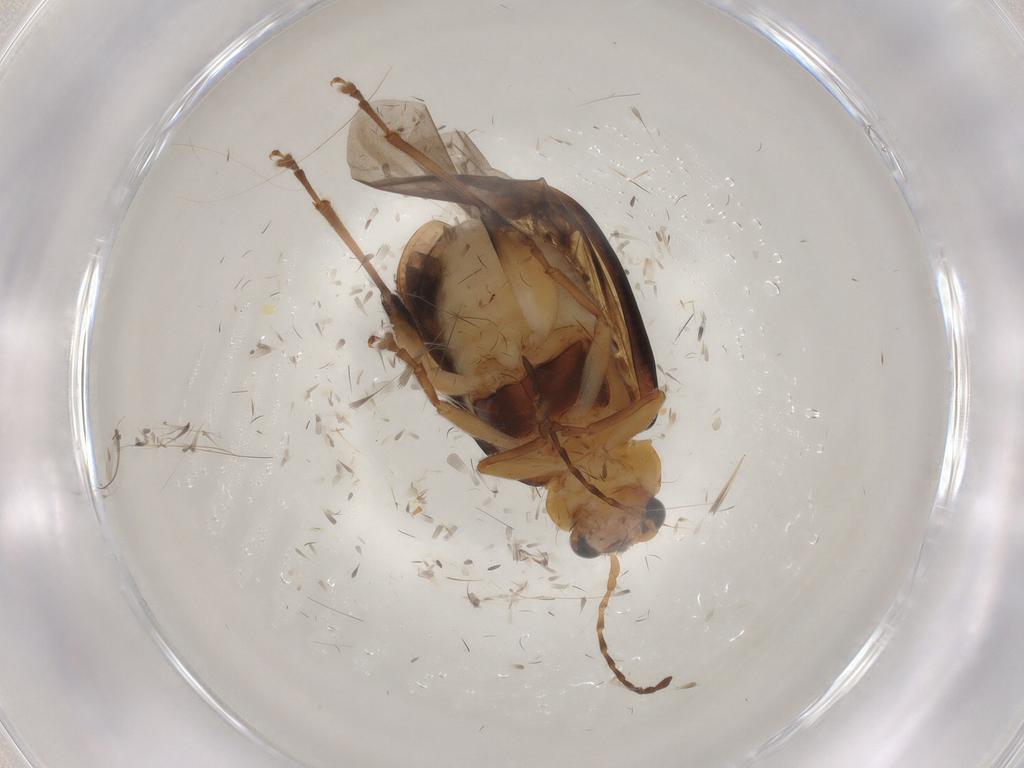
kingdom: Animalia
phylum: Arthropoda
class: Insecta
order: Coleoptera
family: Chrysomelidae
